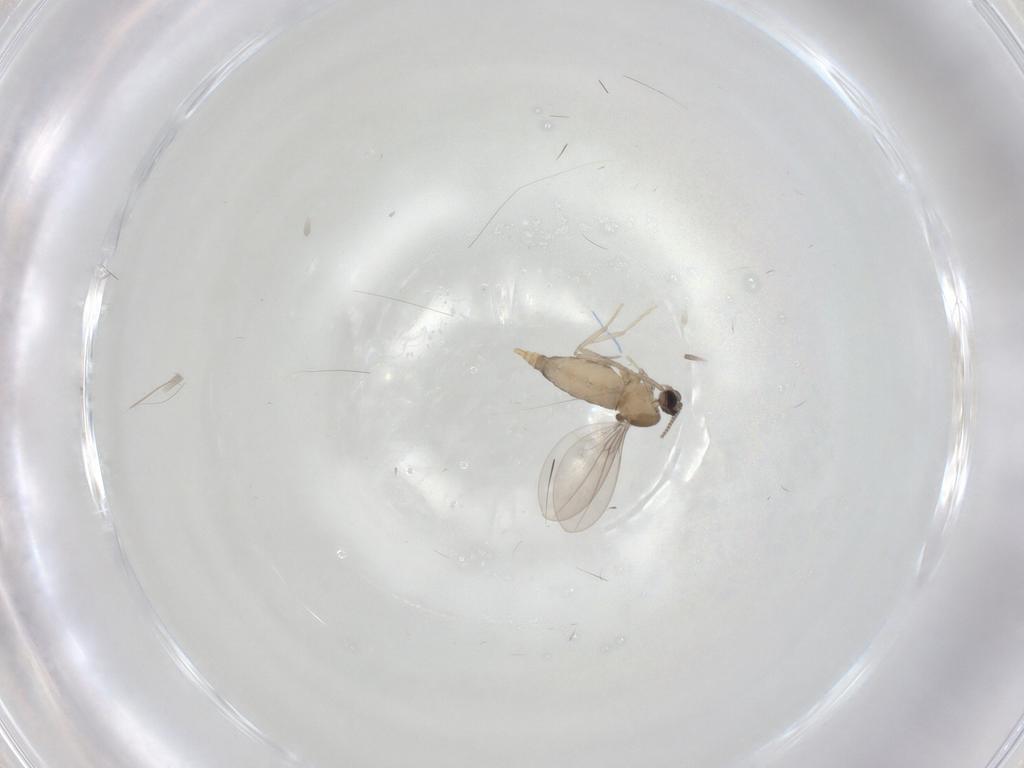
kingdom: Animalia
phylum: Arthropoda
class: Insecta
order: Diptera
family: Cecidomyiidae
